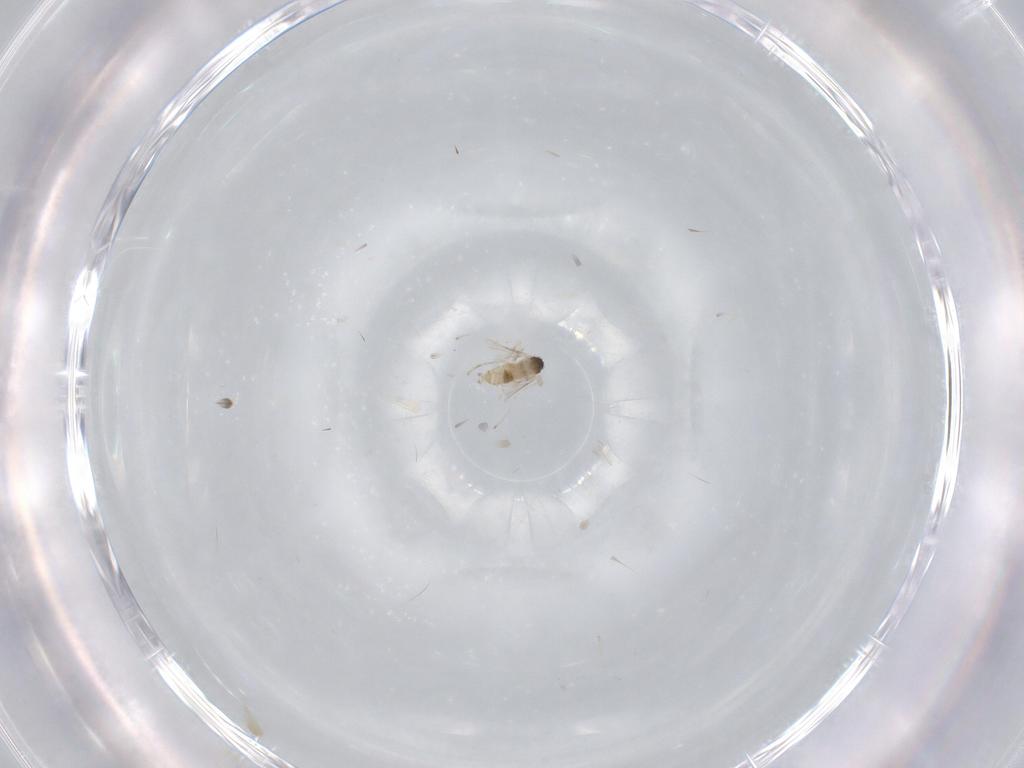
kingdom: Animalia
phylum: Arthropoda
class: Insecta
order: Diptera
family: Cecidomyiidae
